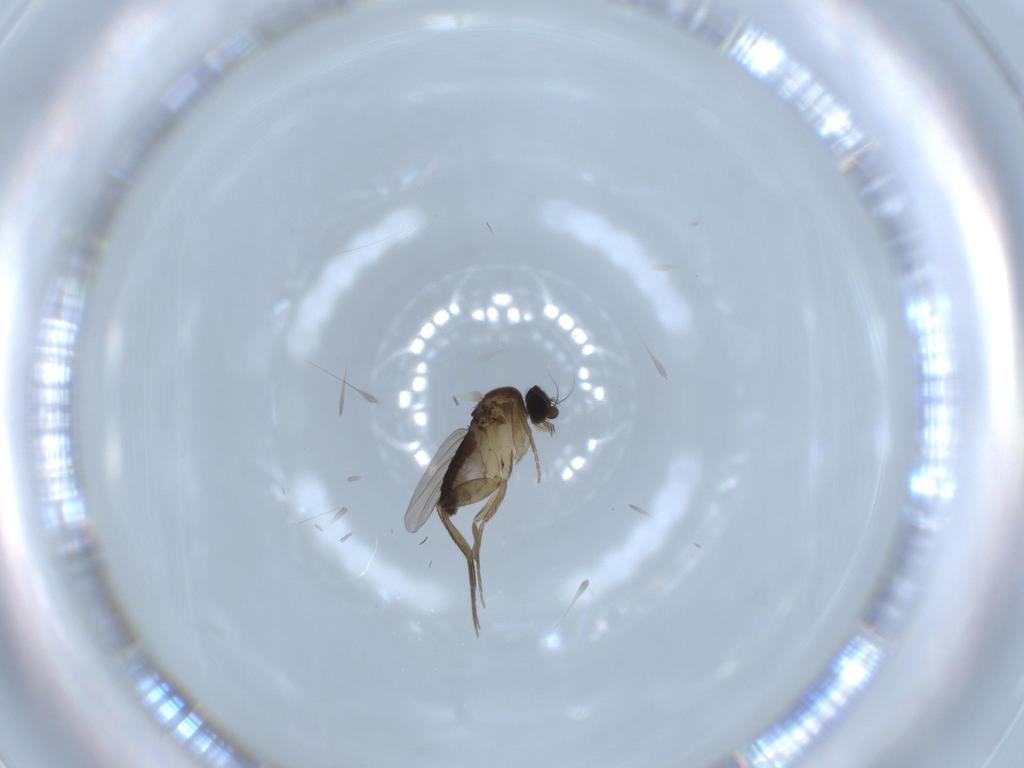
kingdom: Animalia
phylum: Arthropoda
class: Insecta
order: Diptera
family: Phoridae
